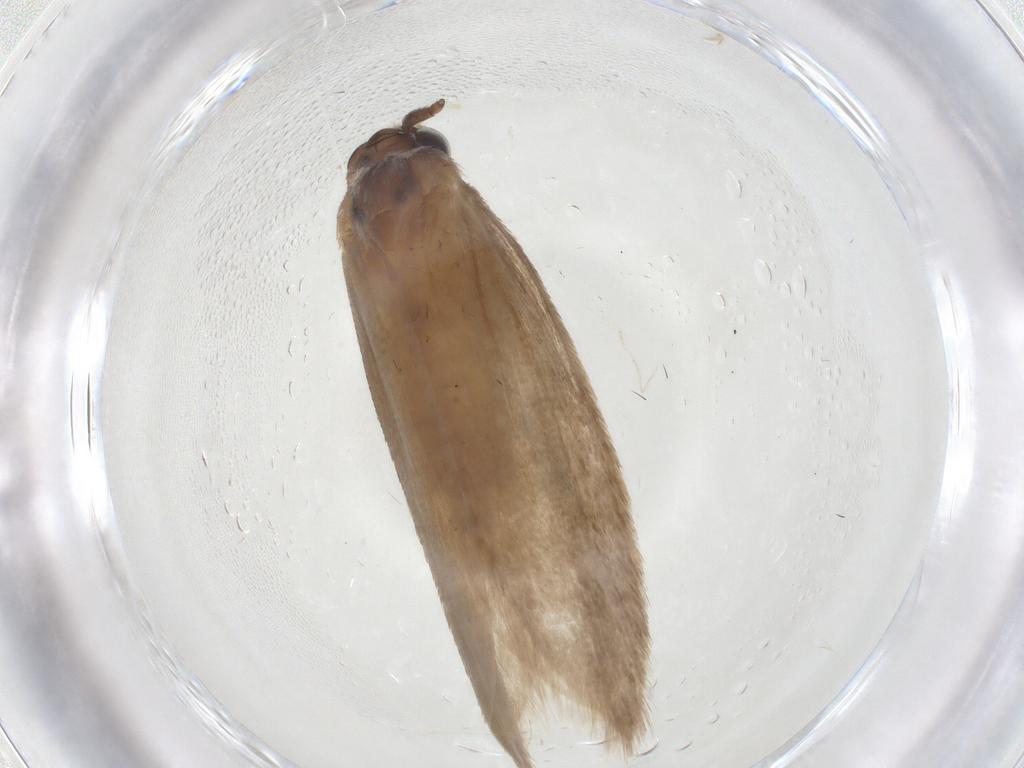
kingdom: Animalia
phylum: Arthropoda
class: Insecta
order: Lepidoptera
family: Roeslerstammiidae
